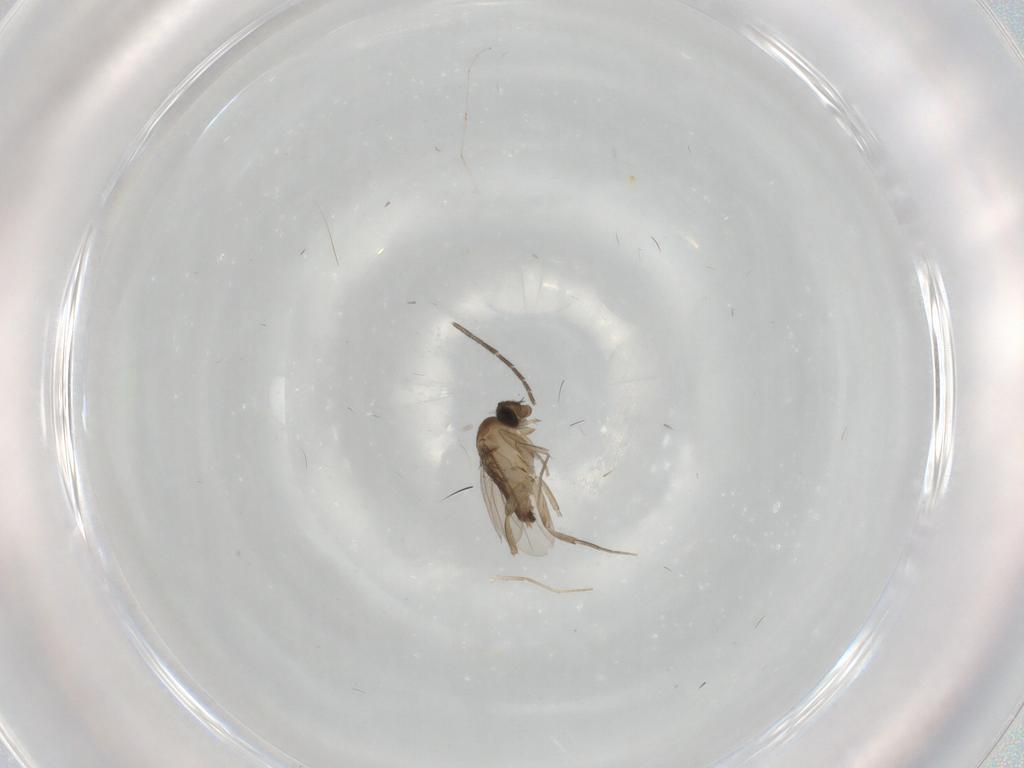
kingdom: Animalia
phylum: Arthropoda
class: Insecta
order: Diptera
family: Phoridae
